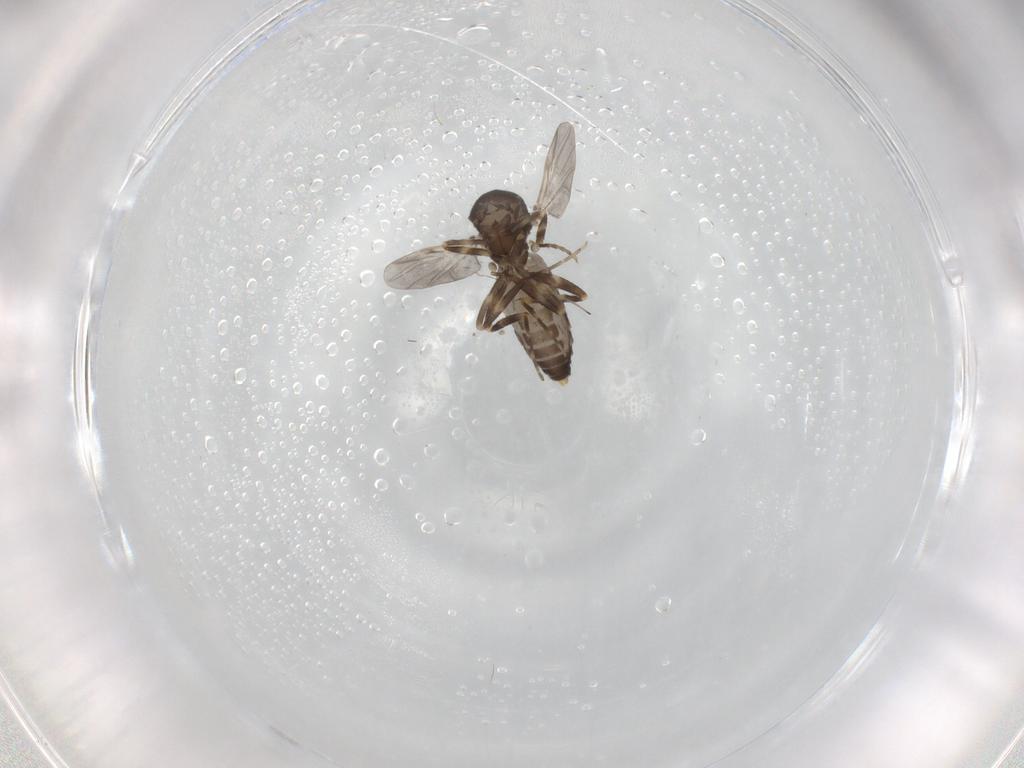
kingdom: Animalia
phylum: Arthropoda
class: Insecta
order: Diptera
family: Ceratopogonidae
